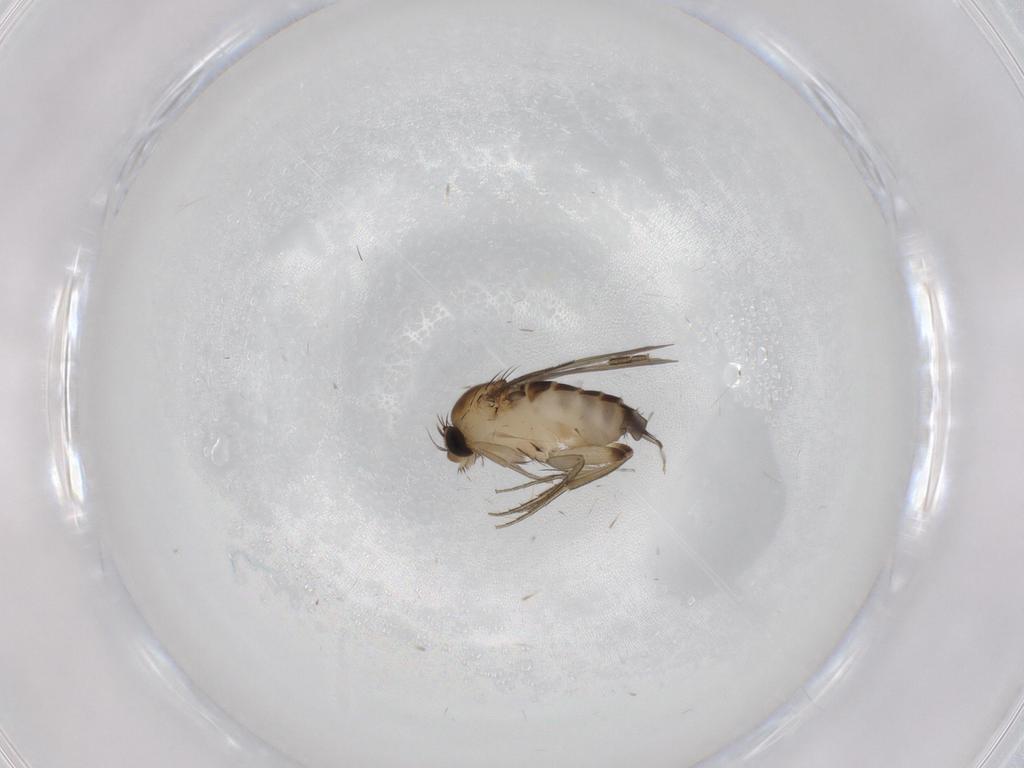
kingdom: Animalia
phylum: Arthropoda
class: Insecta
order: Diptera
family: Phoridae
